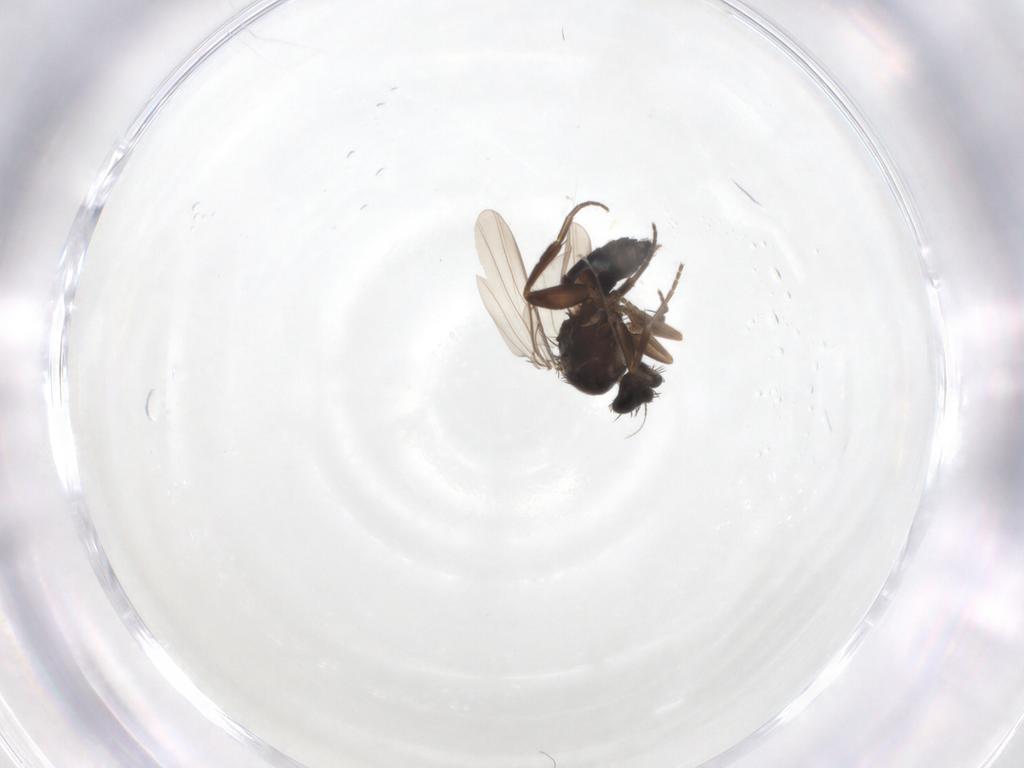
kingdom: Animalia
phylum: Arthropoda
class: Insecta
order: Diptera
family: Phoridae
